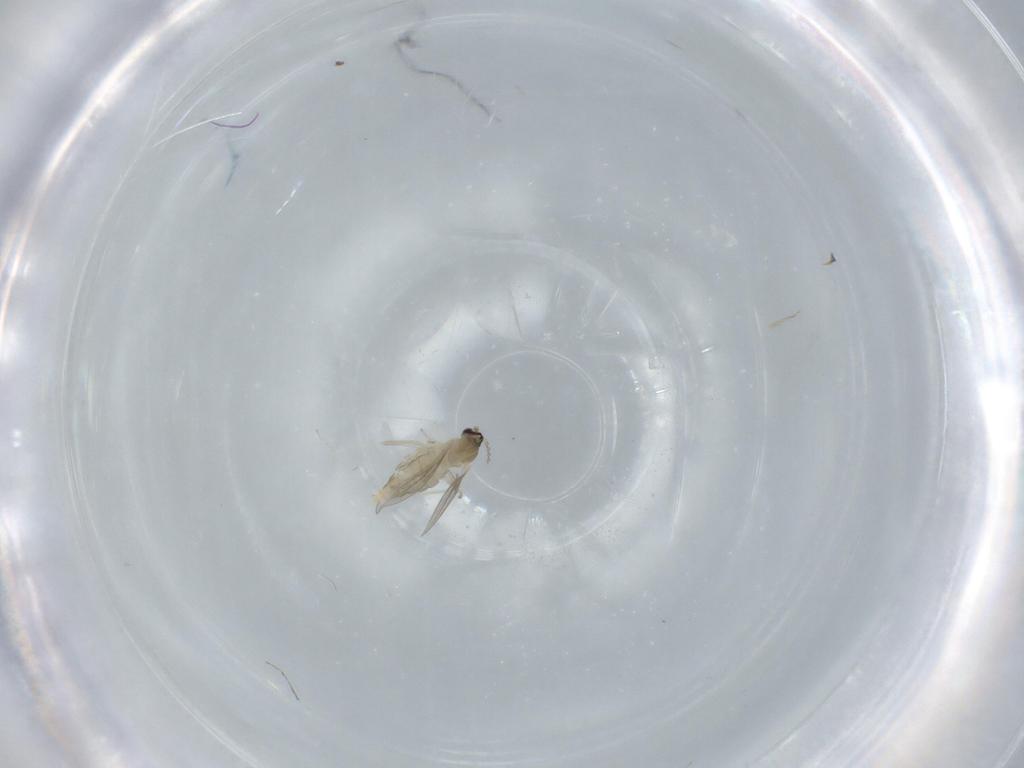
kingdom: Animalia
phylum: Arthropoda
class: Insecta
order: Diptera
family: Cecidomyiidae
